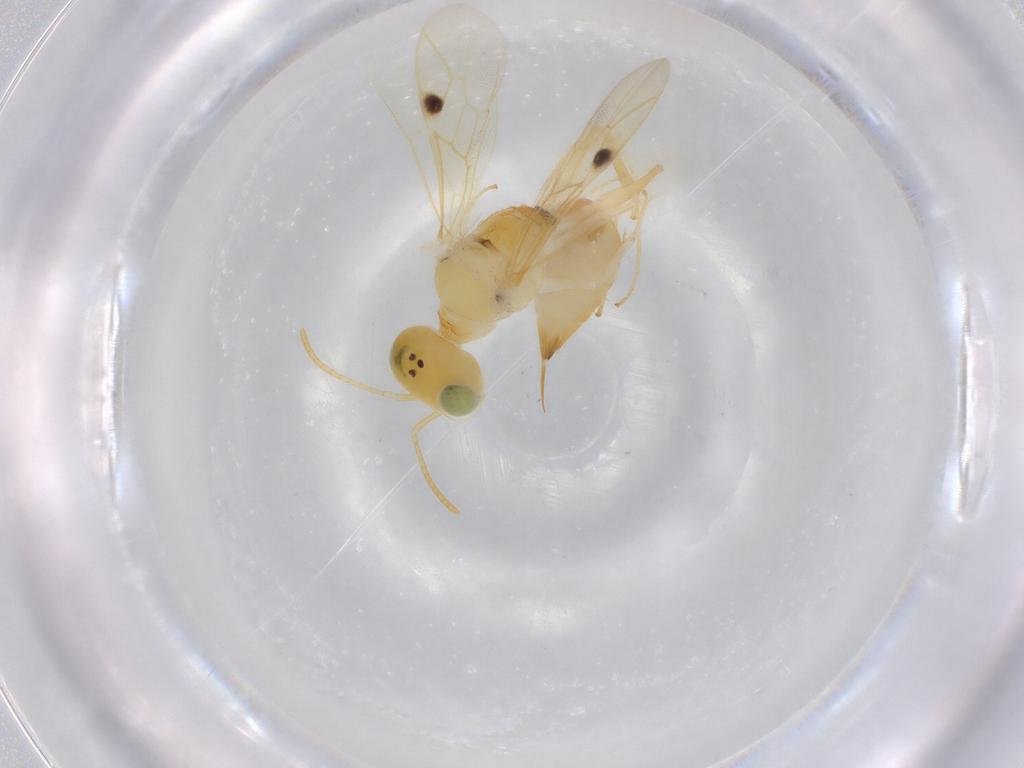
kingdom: Animalia
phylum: Arthropoda
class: Insecta
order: Hymenoptera
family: Pemphredonidae
